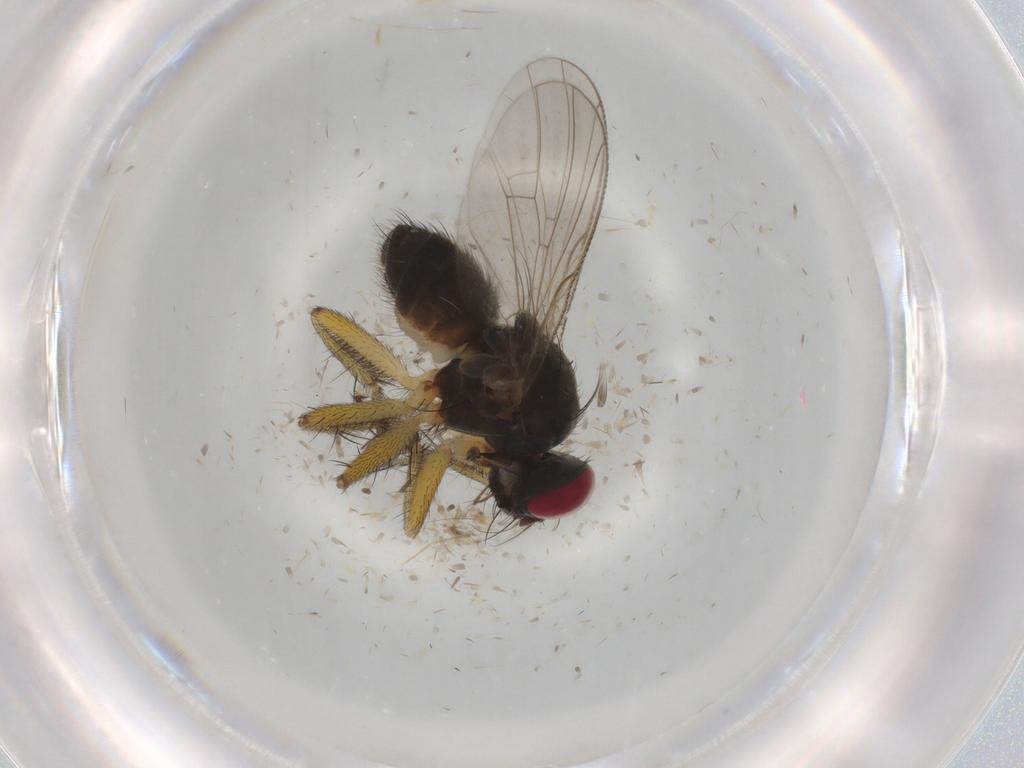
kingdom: Animalia
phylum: Arthropoda
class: Insecta
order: Diptera
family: Muscidae
